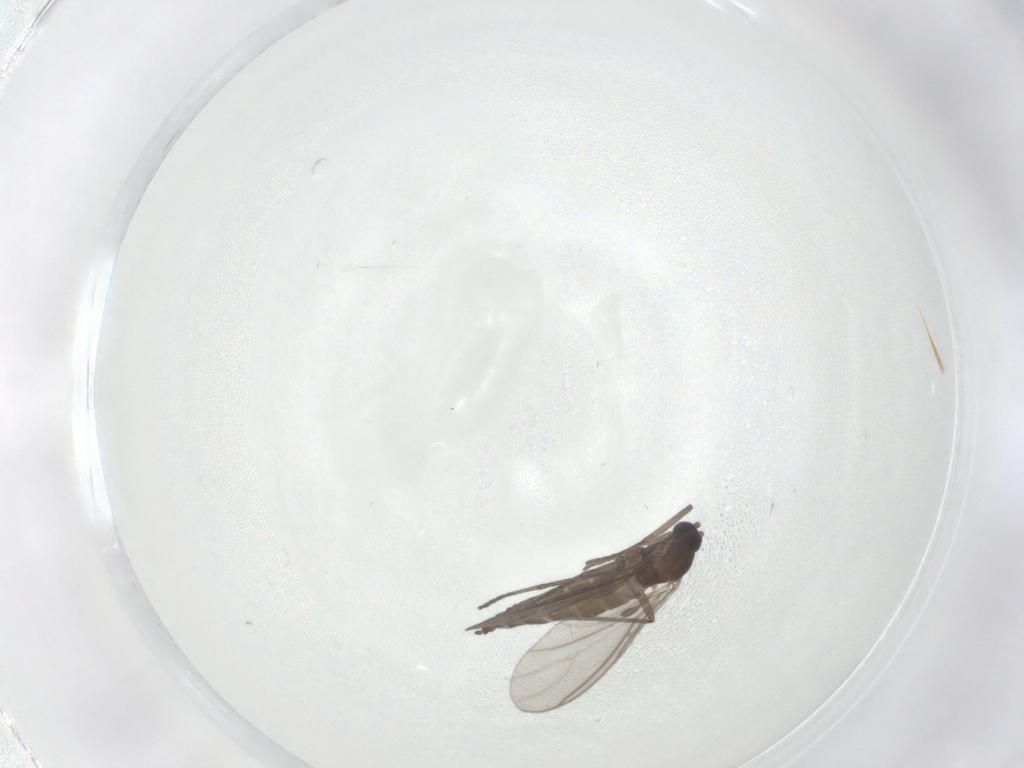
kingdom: Animalia
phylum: Arthropoda
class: Insecta
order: Diptera
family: Sciaridae
